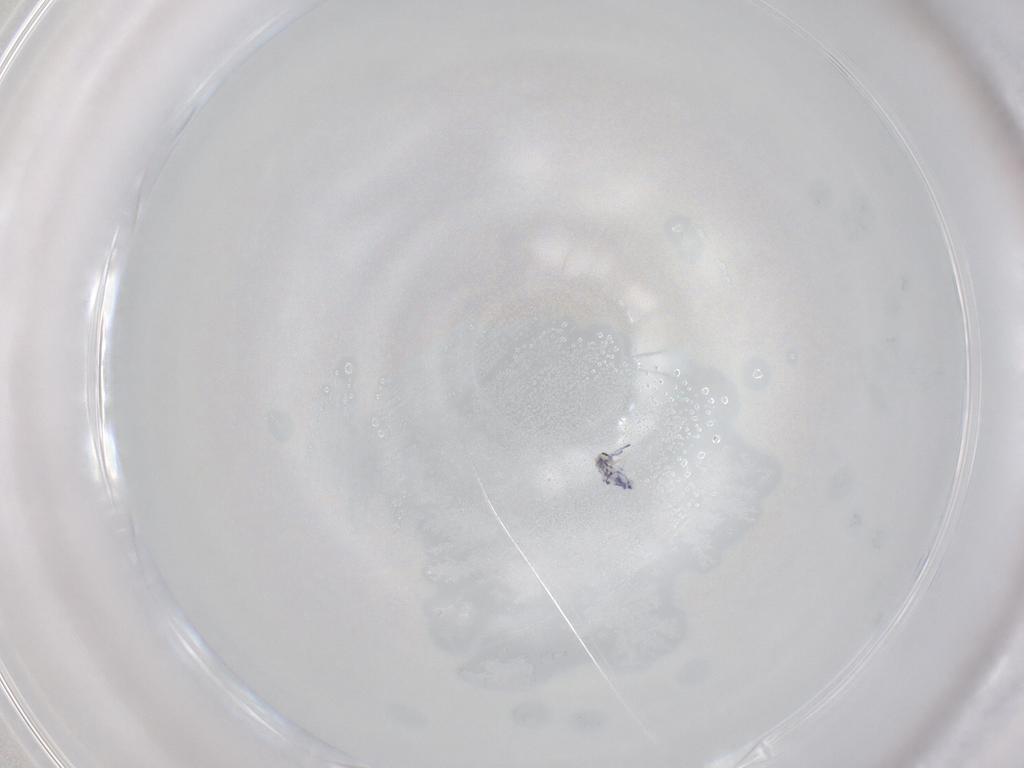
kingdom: Animalia
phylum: Arthropoda
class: Collembola
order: Entomobryomorpha
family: Entomobryidae
